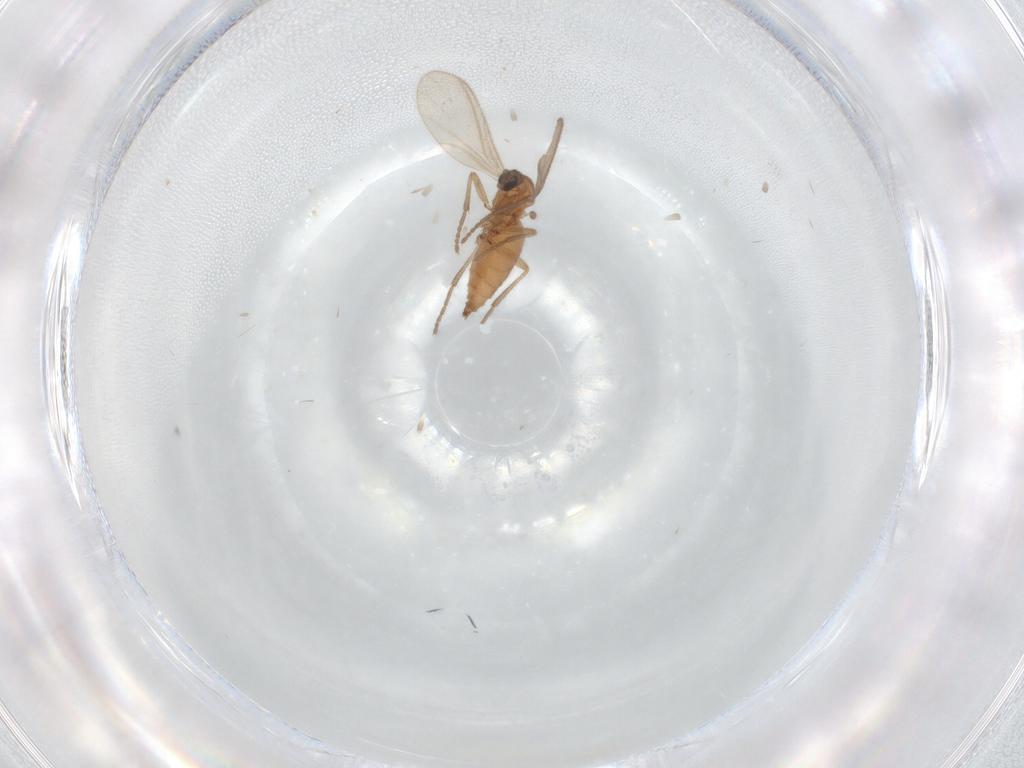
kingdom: Animalia
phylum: Arthropoda
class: Insecta
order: Diptera
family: Sciaridae
